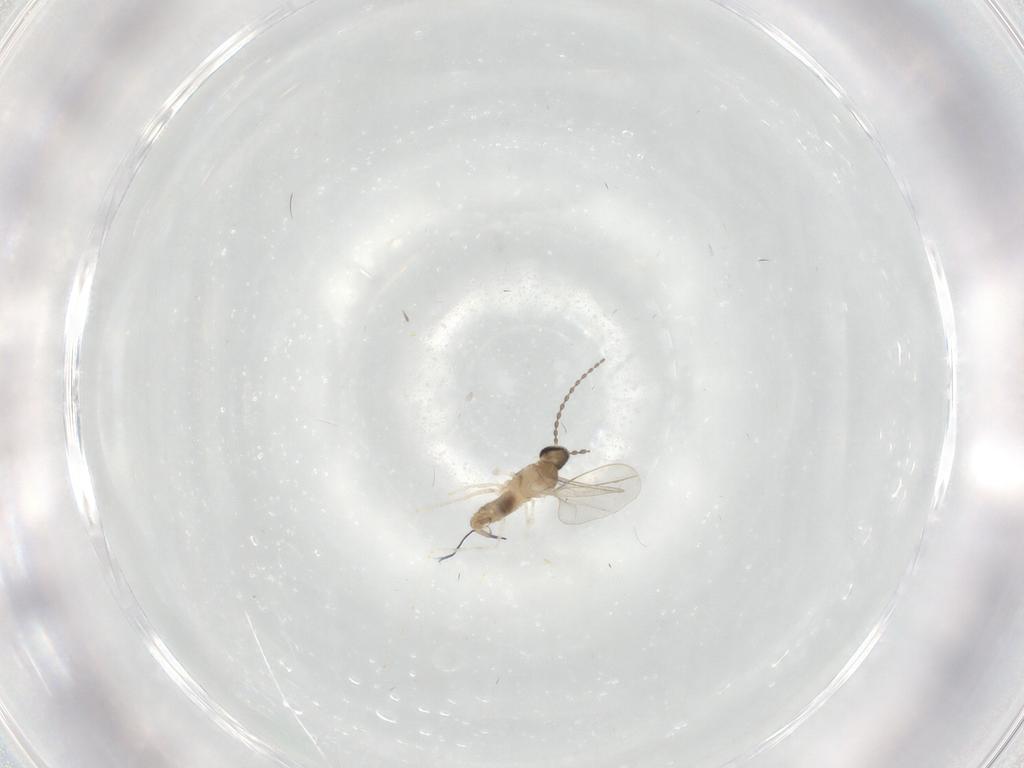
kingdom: Animalia
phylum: Arthropoda
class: Insecta
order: Diptera
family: Cecidomyiidae
